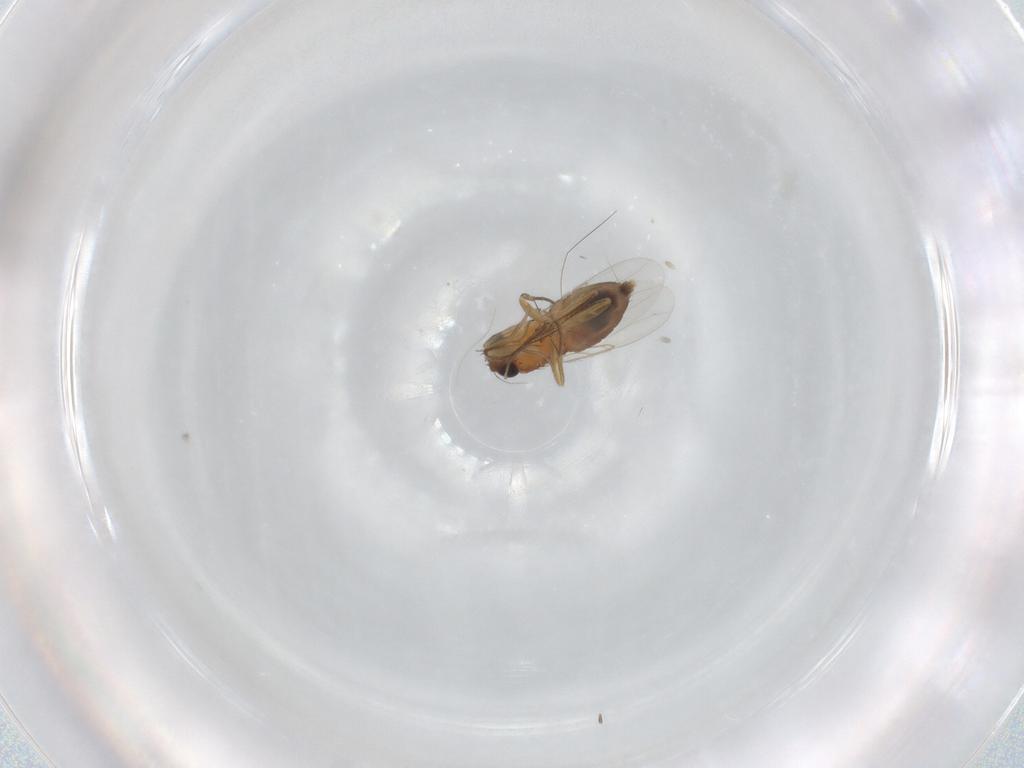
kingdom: Animalia
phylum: Arthropoda
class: Insecta
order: Diptera
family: Phoridae
